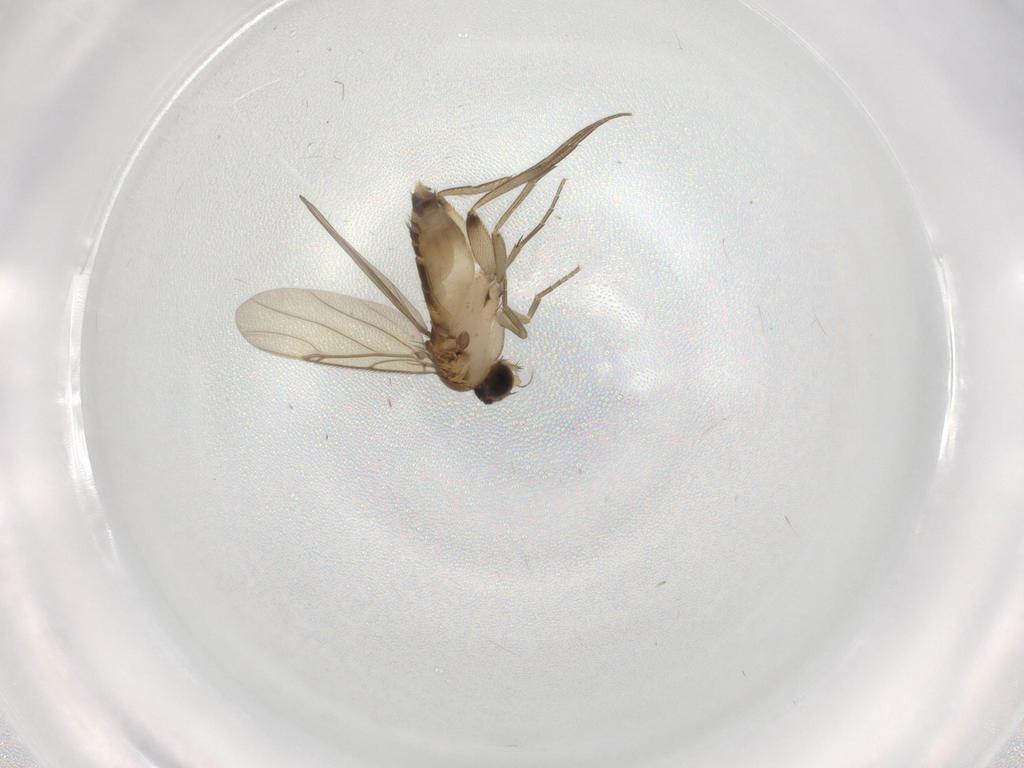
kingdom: Animalia
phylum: Arthropoda
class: Insecta
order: Diptera
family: Phoridae
